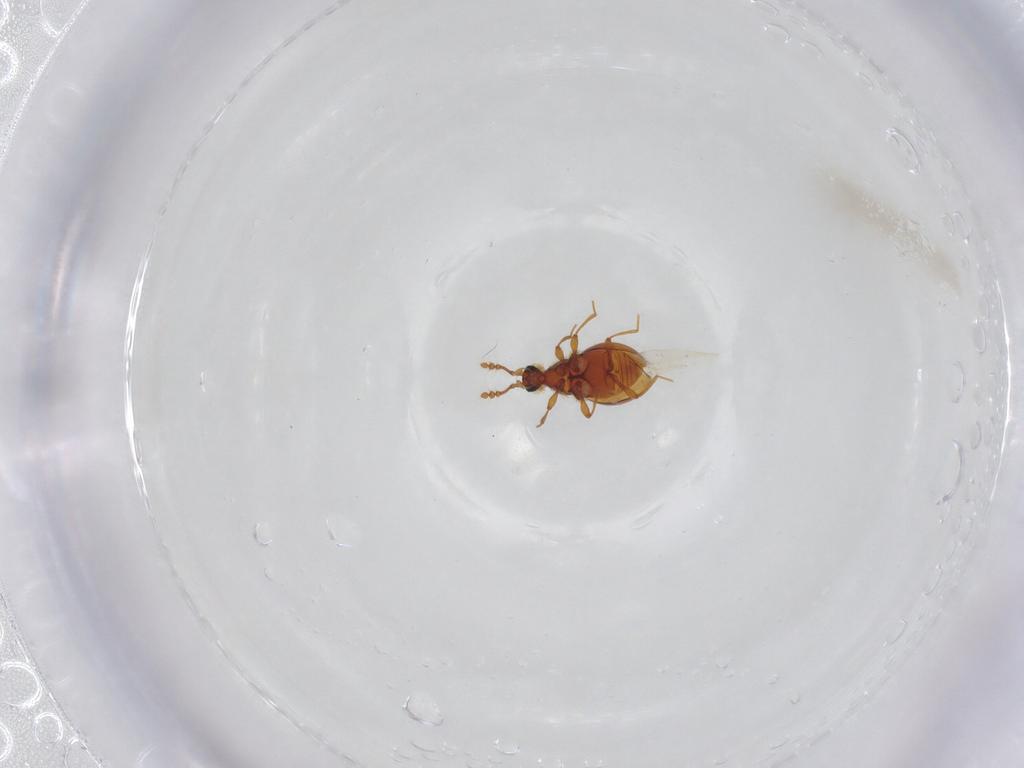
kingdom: Animalia
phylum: Arthropoda
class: Insecta
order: Coleoptera
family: Staphylinidae
